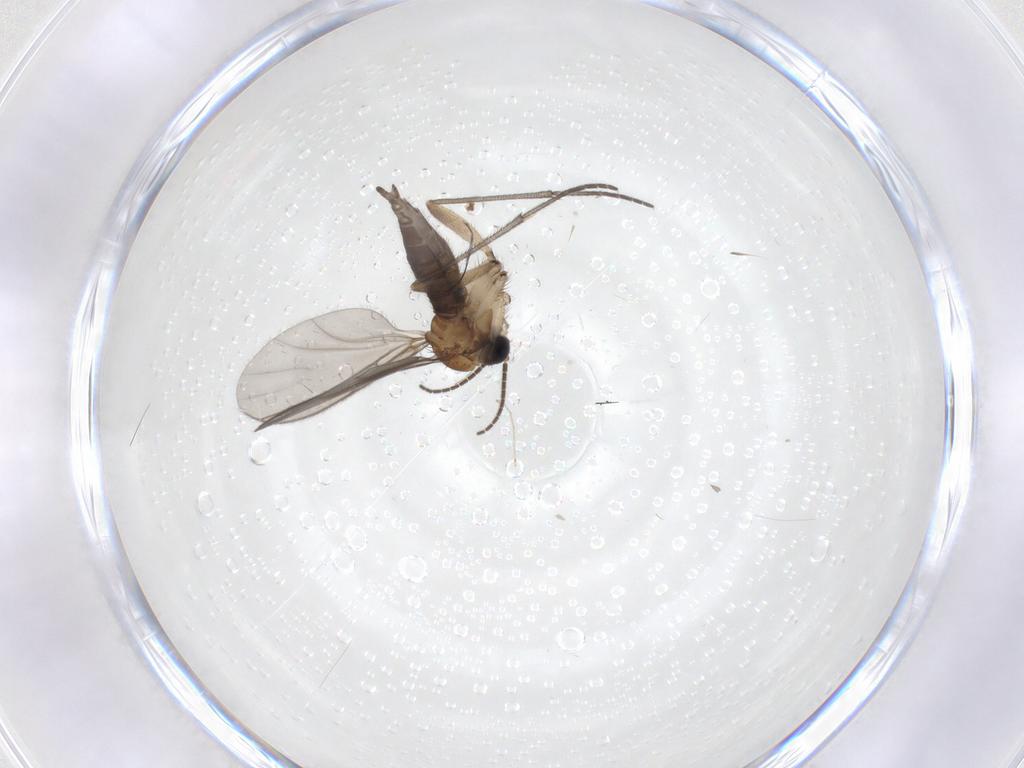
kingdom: Animalia
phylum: Arthropoda
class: Insecta
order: Diptera
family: Sciaridae
